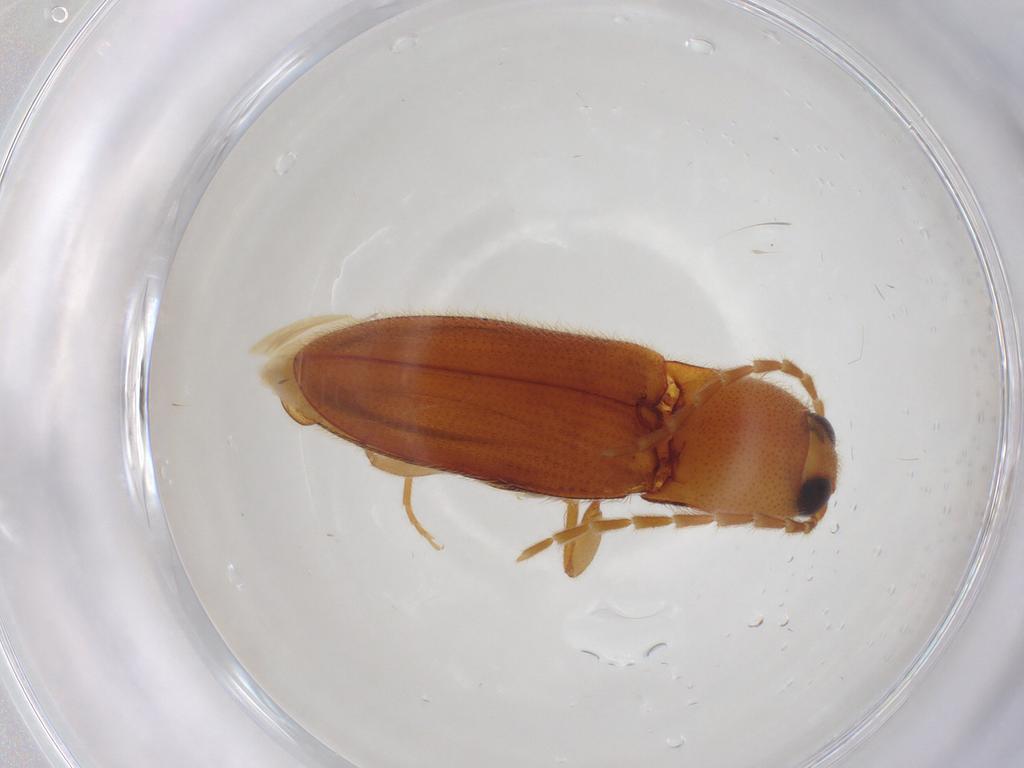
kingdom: Animalia
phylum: Arthropoda
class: Insecta
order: Coleoptera
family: Elateridae
